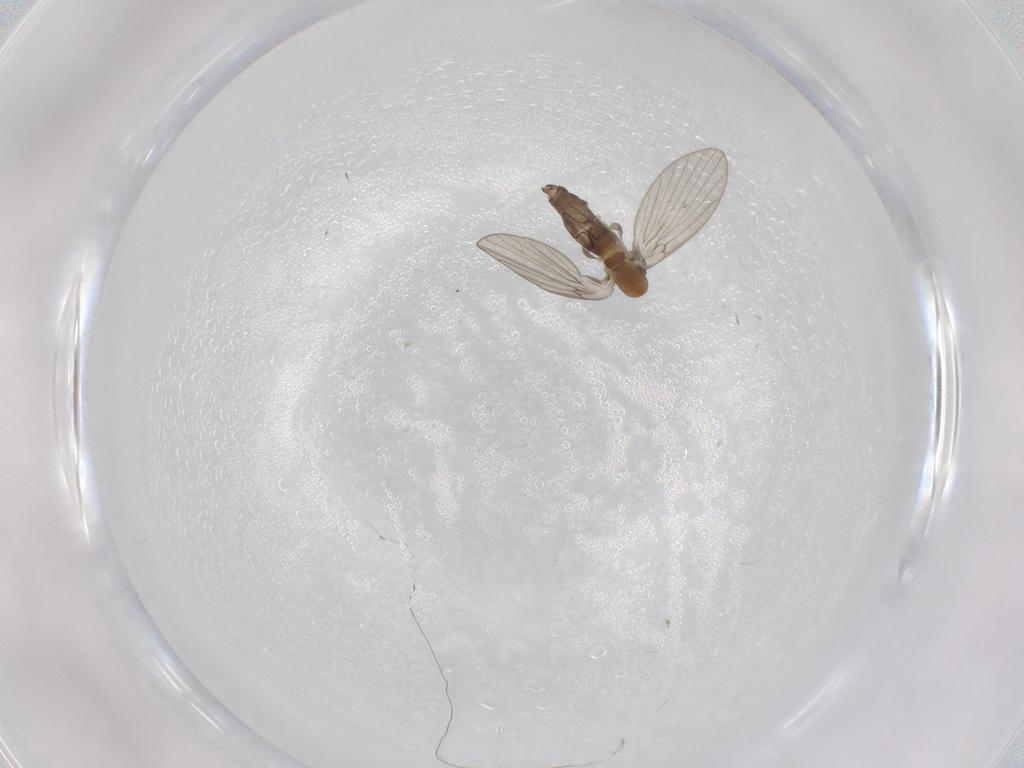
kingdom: Animalia
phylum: Arthropoda
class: Insecta
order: Diptera
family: Psychodidae
